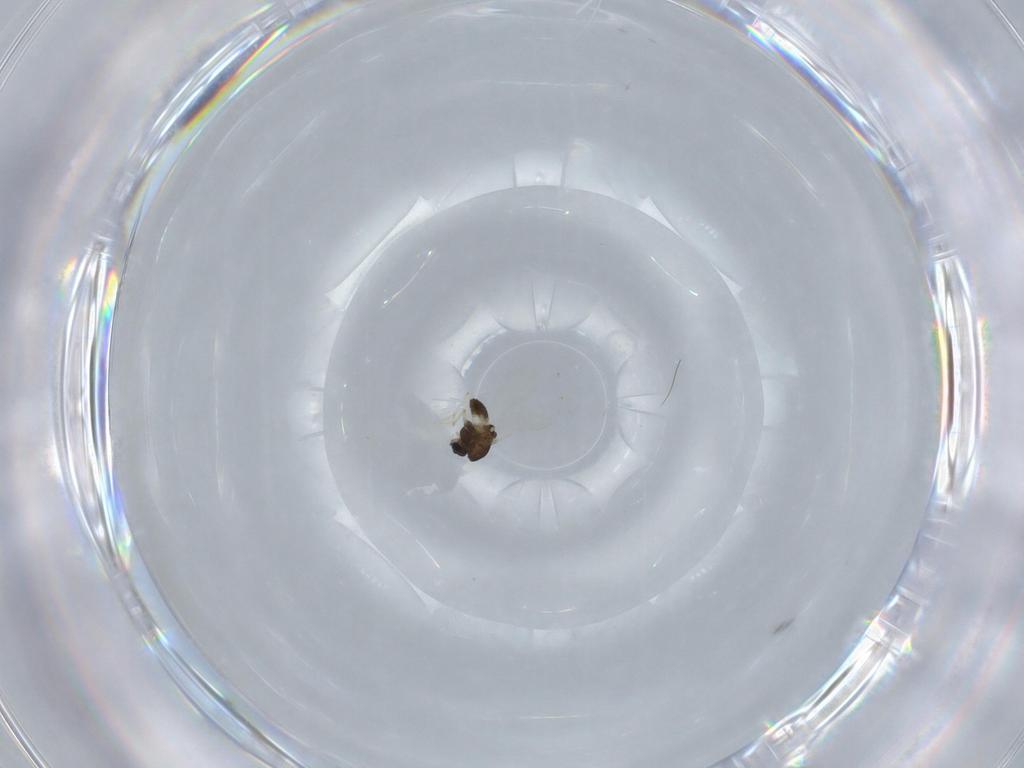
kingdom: Animalia
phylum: Arthropoda
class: Insecta
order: Diptera
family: Chironomidae
